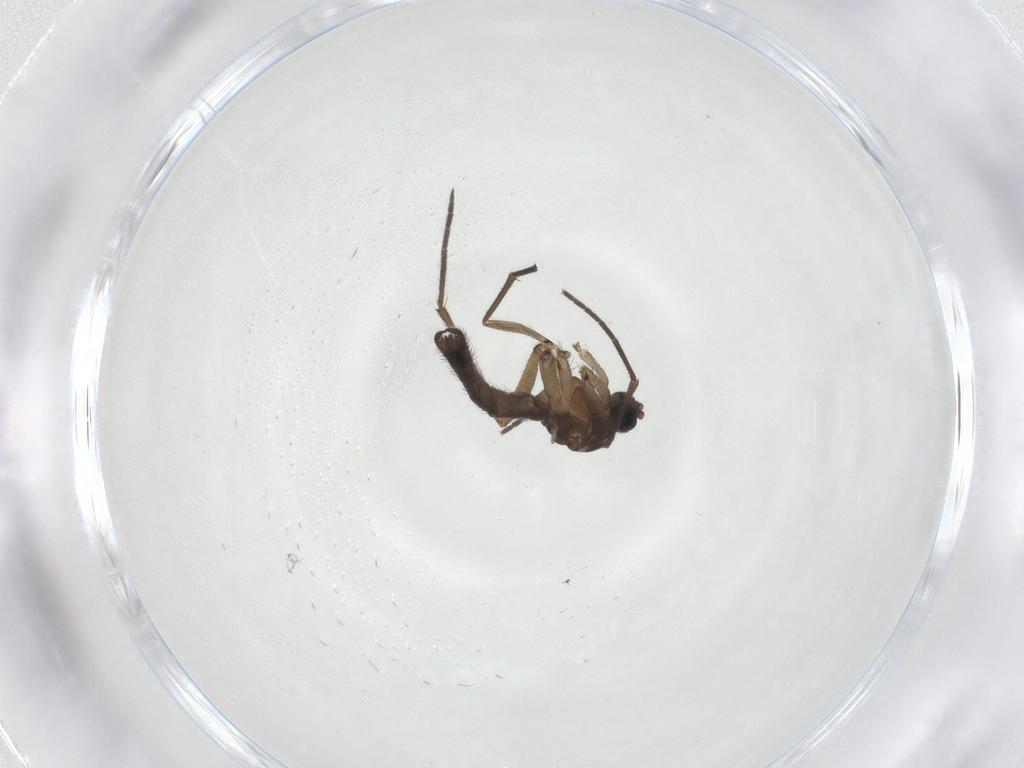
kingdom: Animalia
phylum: Arthropoda
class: Insecta
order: Diptera
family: Sciaridae
